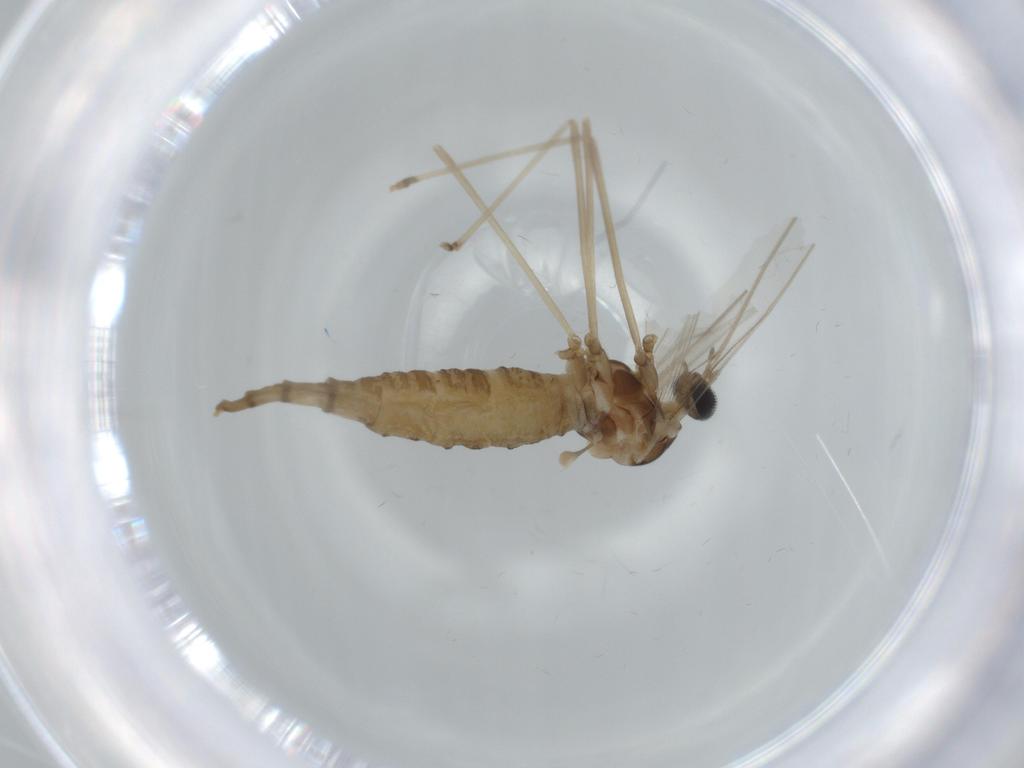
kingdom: Animalia
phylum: Arthropoda
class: Insecta
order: Diptera
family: Cecidomyiidae
